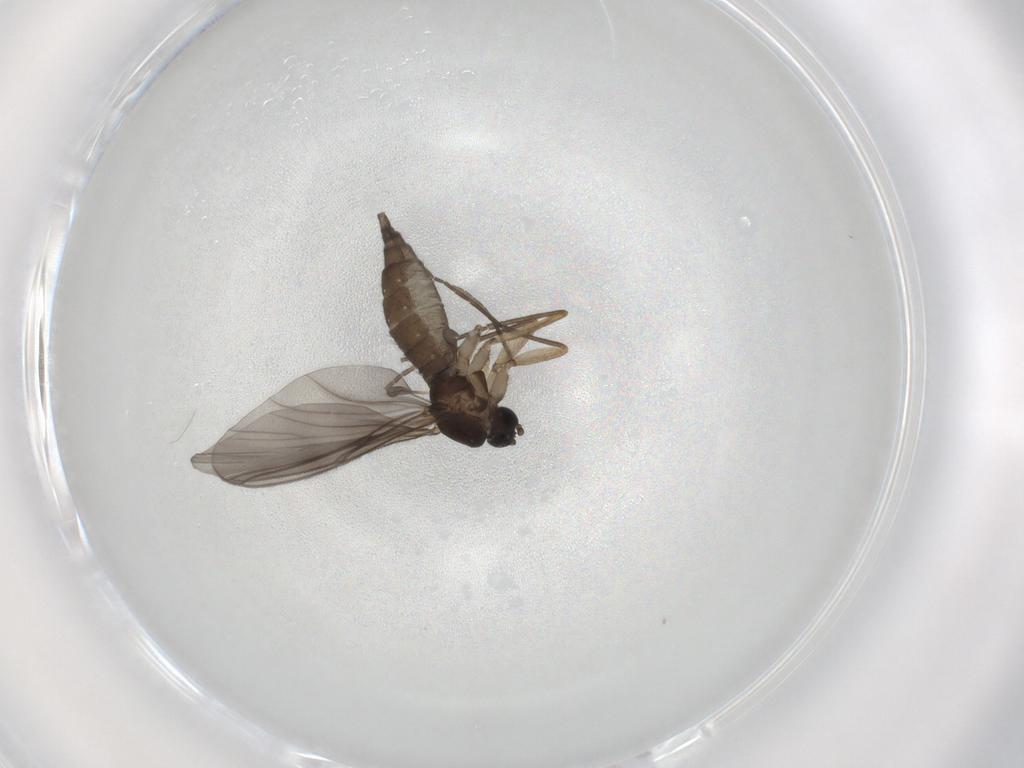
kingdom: Animalia
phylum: Arthropoda
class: Insecta
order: Diptera
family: Sciaridae
